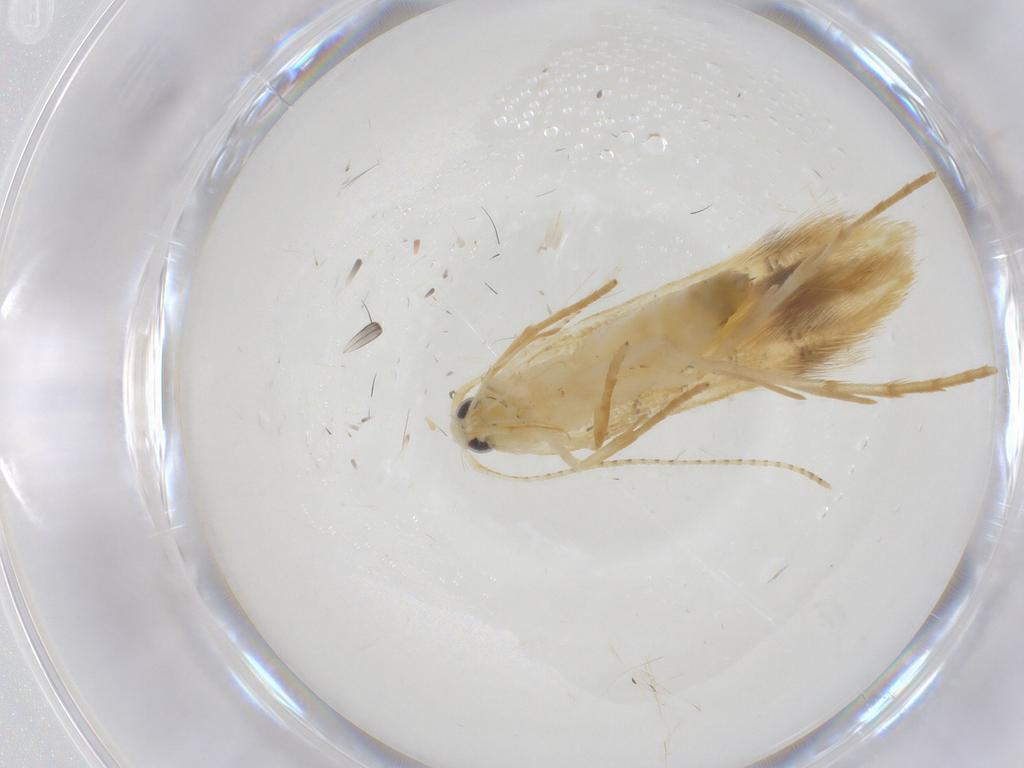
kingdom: Animalia
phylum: Arthropoda
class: Insecta
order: Lepidoptera
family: Oecophoridae
